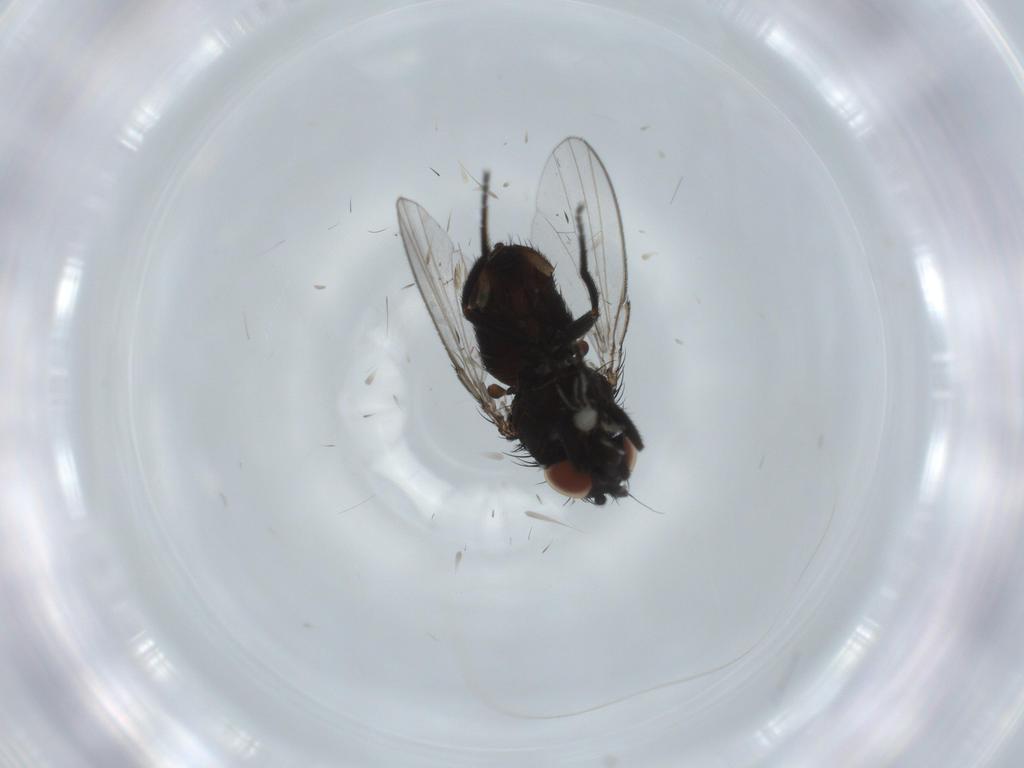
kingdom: Animalia
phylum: Arthropoda
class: Insecta
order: Diptera
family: Milichiidae
